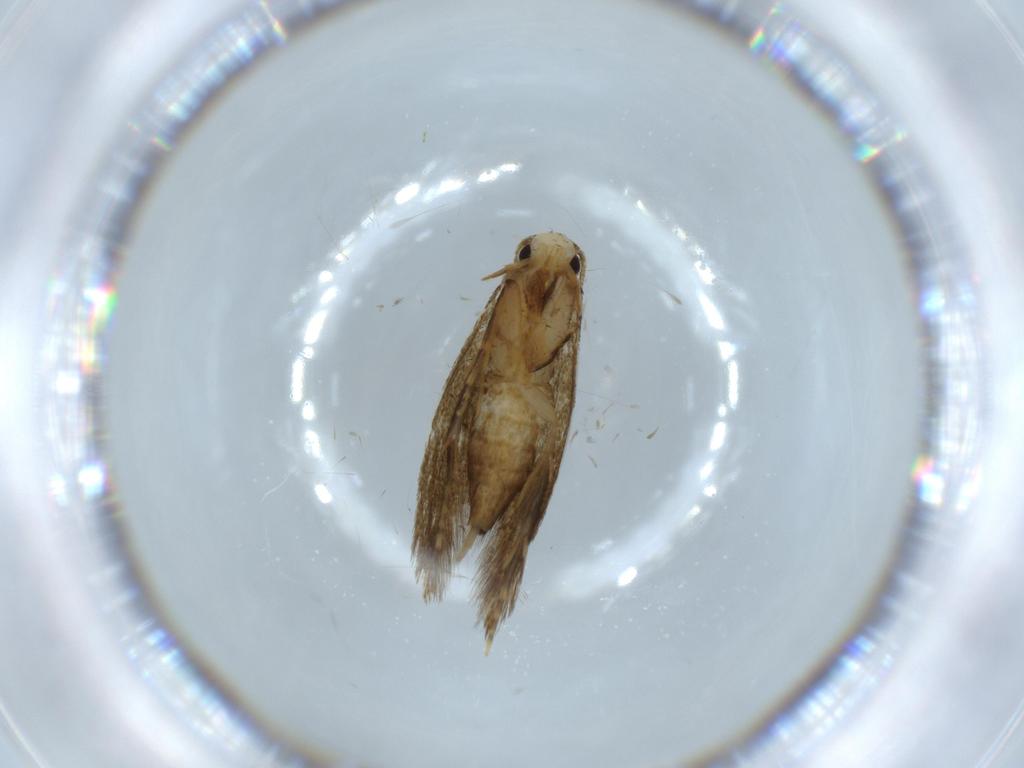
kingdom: Animalia
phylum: Arthropoda
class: Insecta
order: Lepidoptera
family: Tineidae
